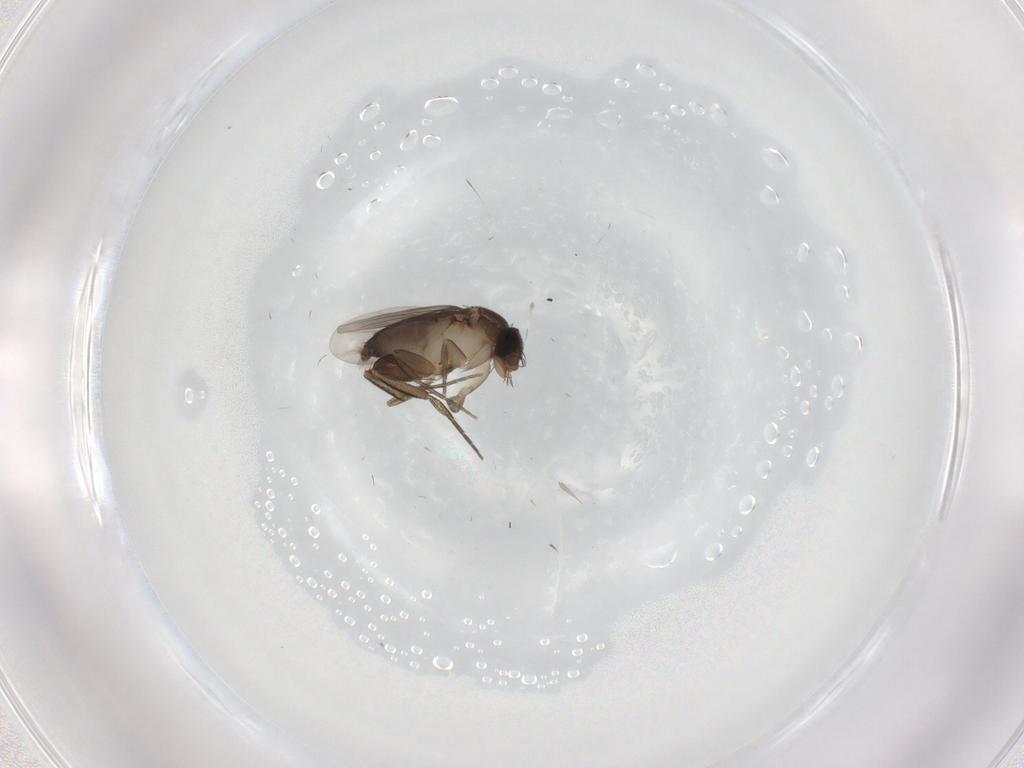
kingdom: Animalia
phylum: Arthropoda
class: Insecta
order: Diptera
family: Phoridae
